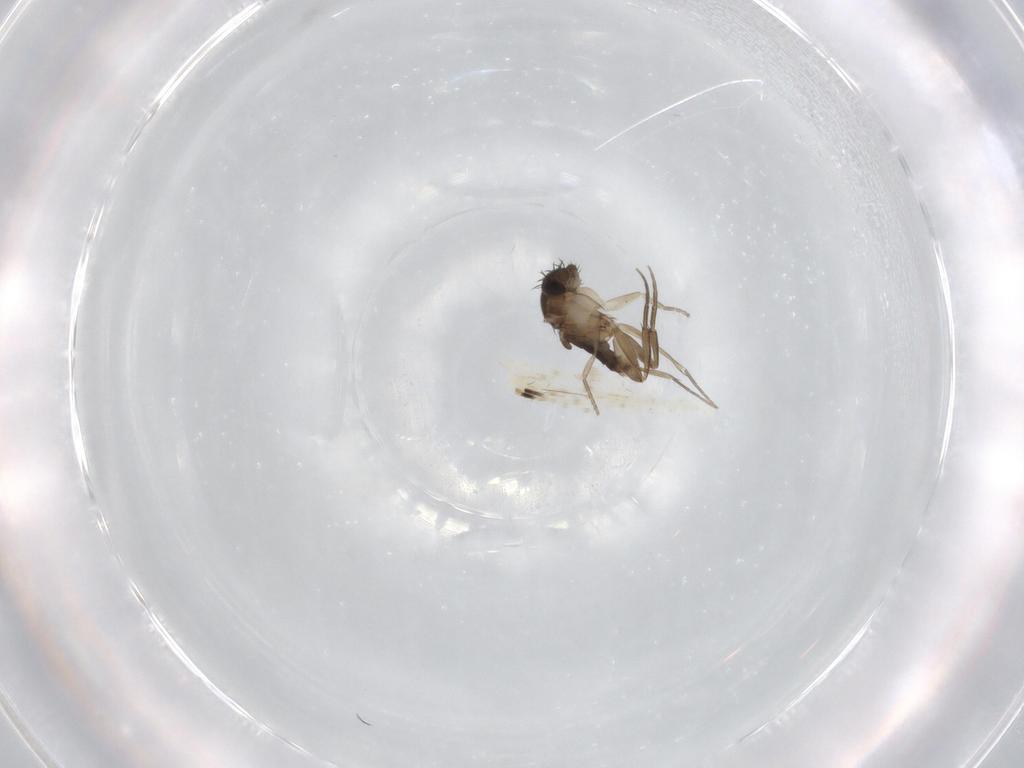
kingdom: Animalia
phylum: Arthropoda
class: Insecta
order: Diptera
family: Phoridae
